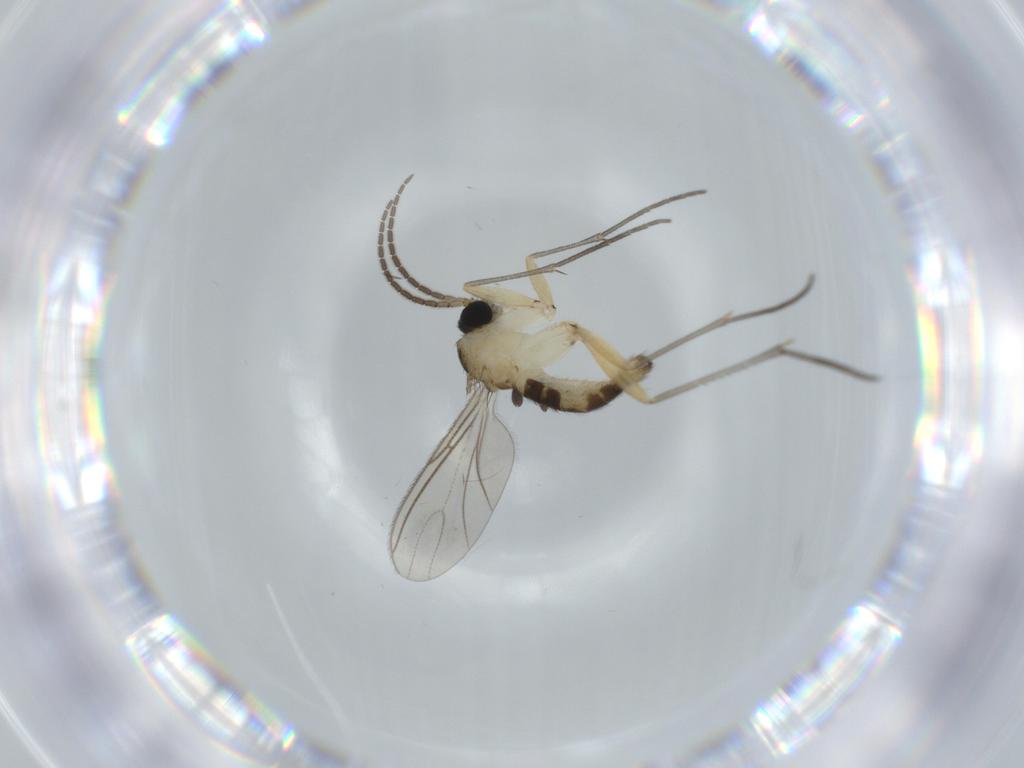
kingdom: Animalia
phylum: Arthropoda
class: Insecta
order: Diptera
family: Sciaridae
